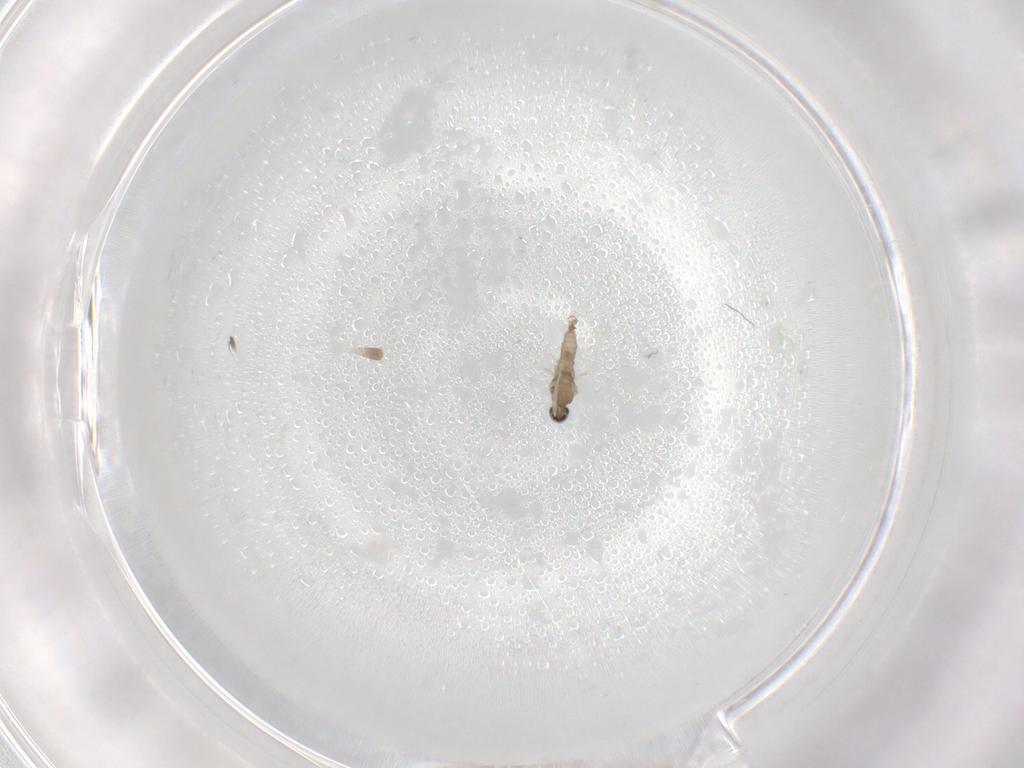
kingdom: Animalia
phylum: Arthropoda
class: Insecta
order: Diptera
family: Cecidomyiidae
